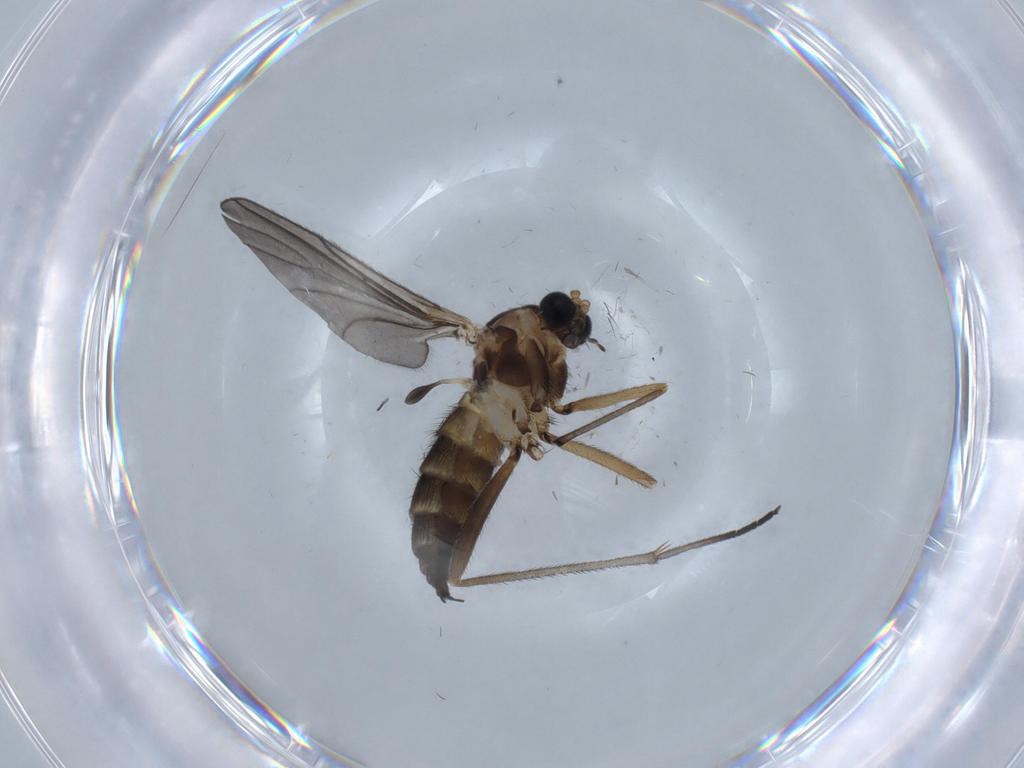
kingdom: Animalia
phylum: Arthropoda
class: Insecta
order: Diptera
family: Sciaridae
